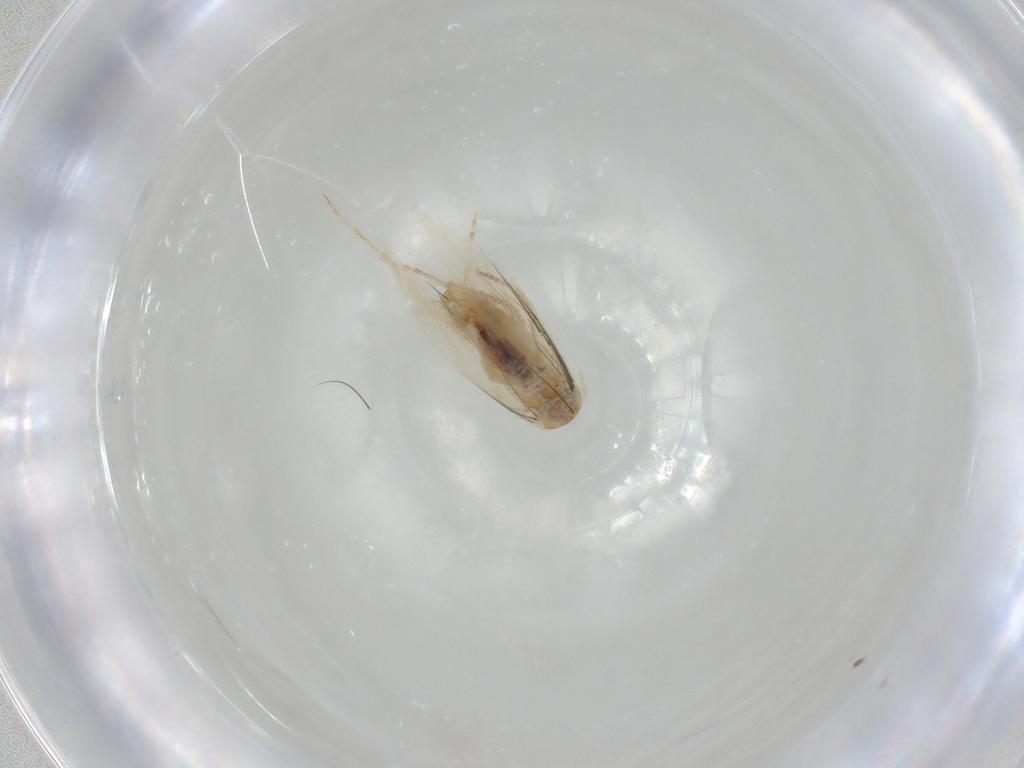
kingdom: Animalia
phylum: Arthropoda
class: Insecta
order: Lepidoptera
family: Bucculatricidae
